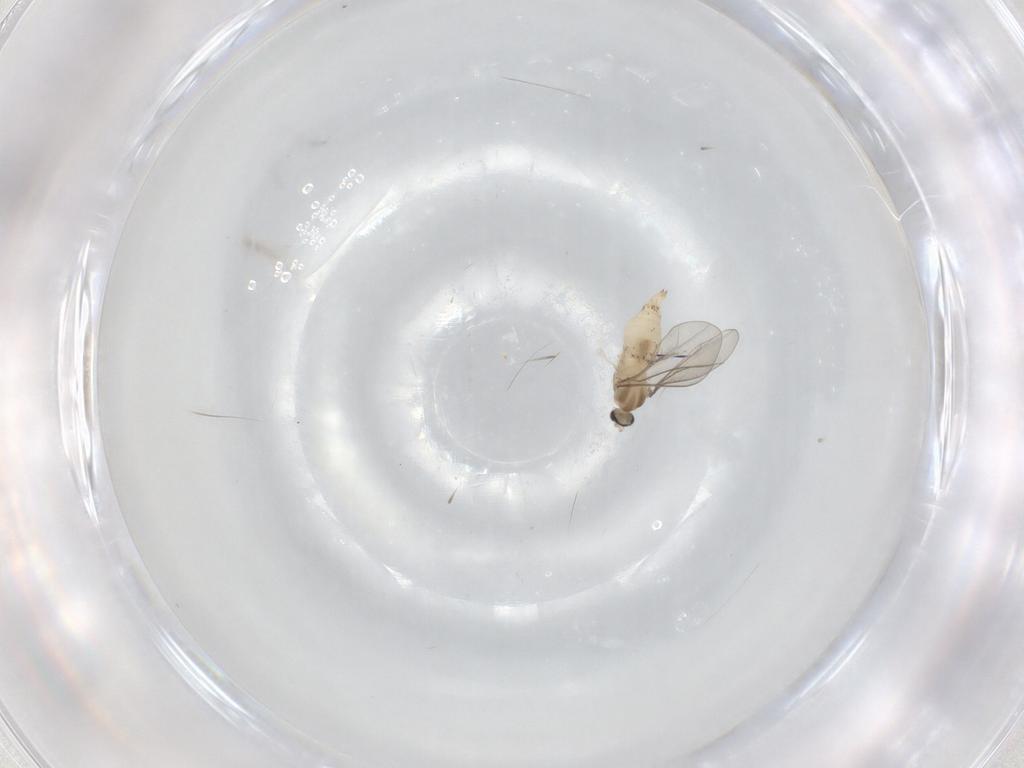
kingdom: Animalia
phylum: Arthropoda
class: Insecta
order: Diptera
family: Cecidomyiidae
